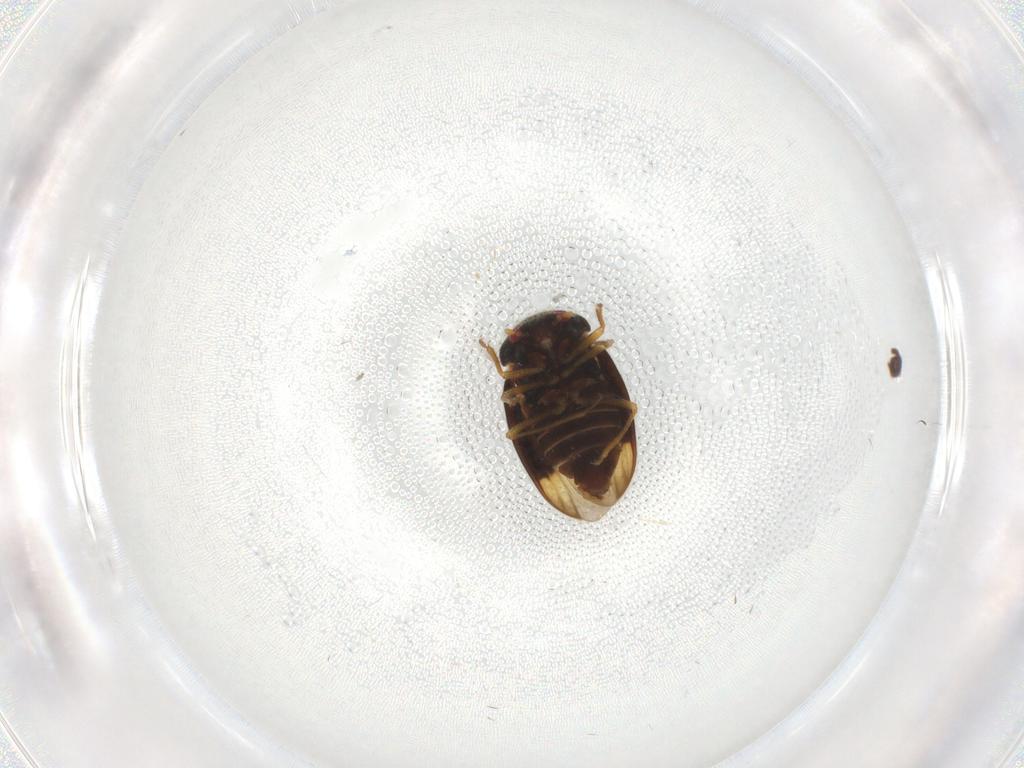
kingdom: Animalia
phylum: Arthropoda
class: Insecta
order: Hemiptera
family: Schizopteridae
